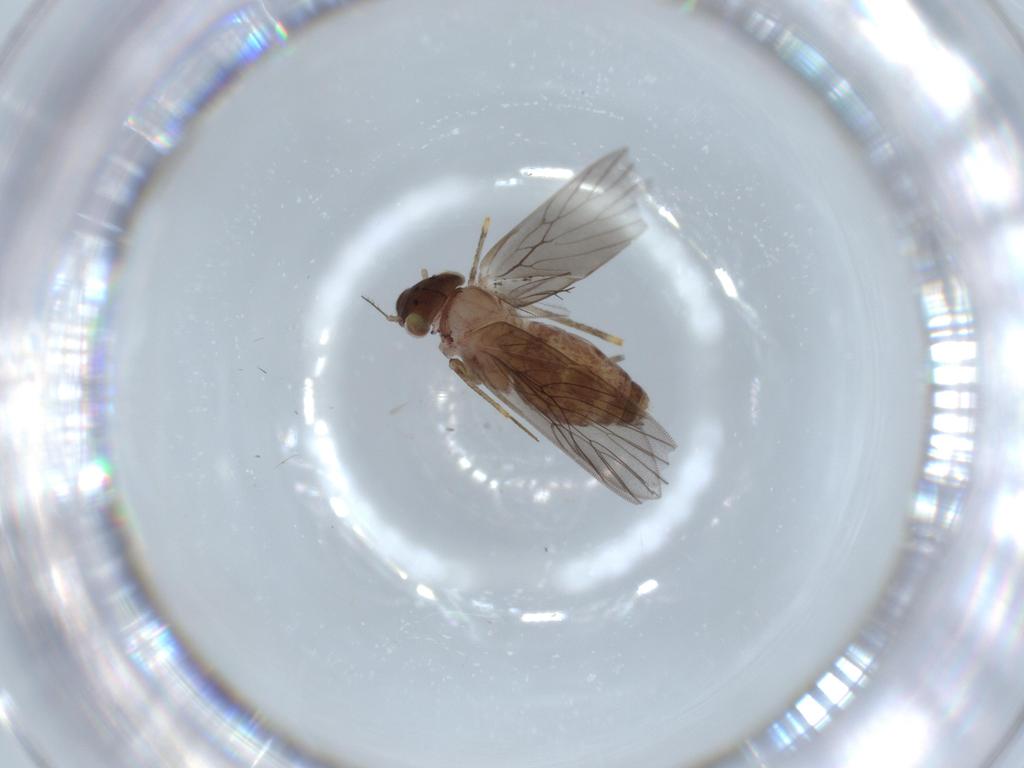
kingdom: Animalia
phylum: Arthropoda
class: Insecta
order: Psocodea
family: Lepidopsocidae
